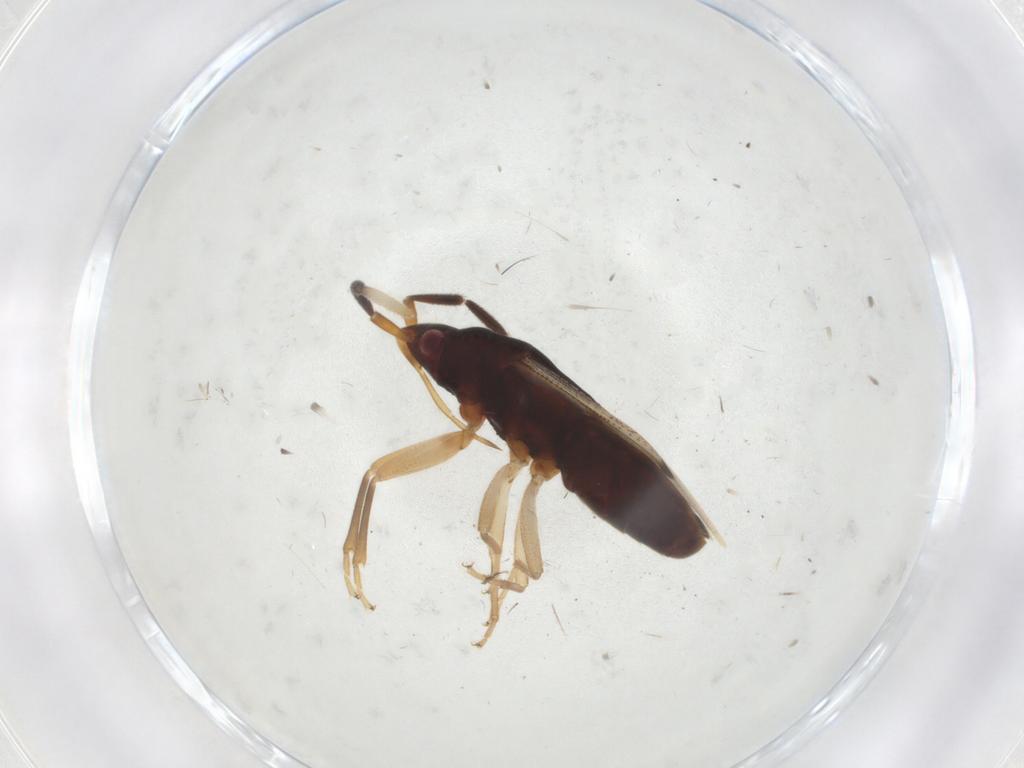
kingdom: Animalia
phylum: Arthropoda
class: Insecta
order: Hemiptera
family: Rhyparochromidae
